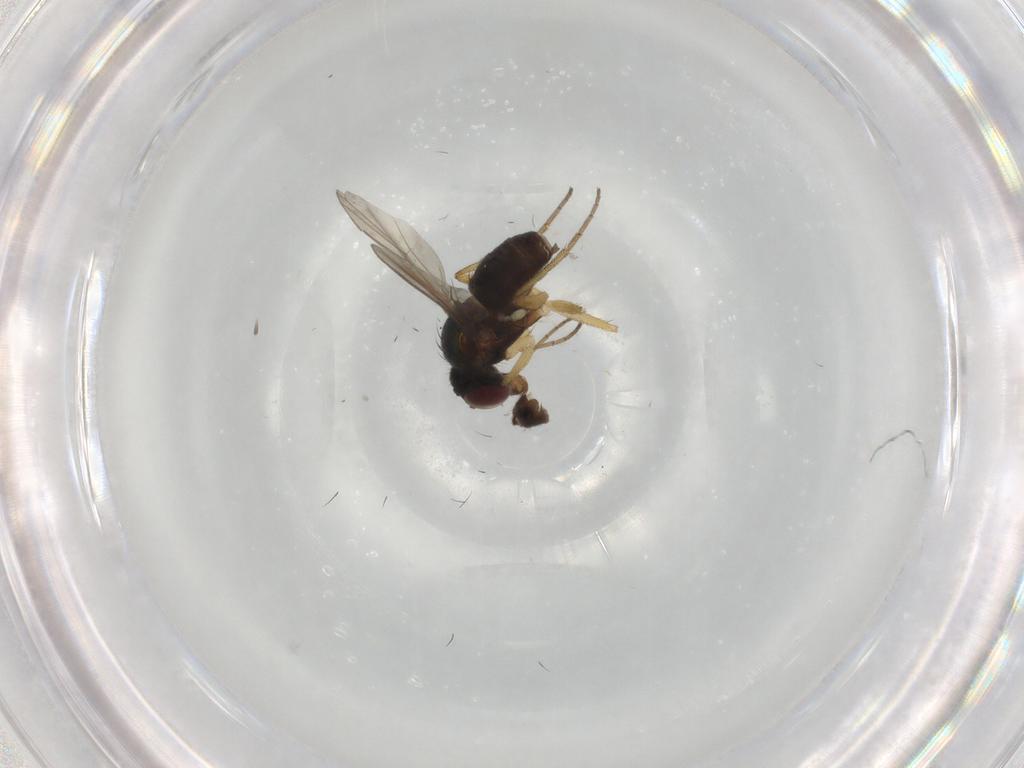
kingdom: Animalia
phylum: Arthropoda
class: Insecta
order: Diptera
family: Dolichopodidae
